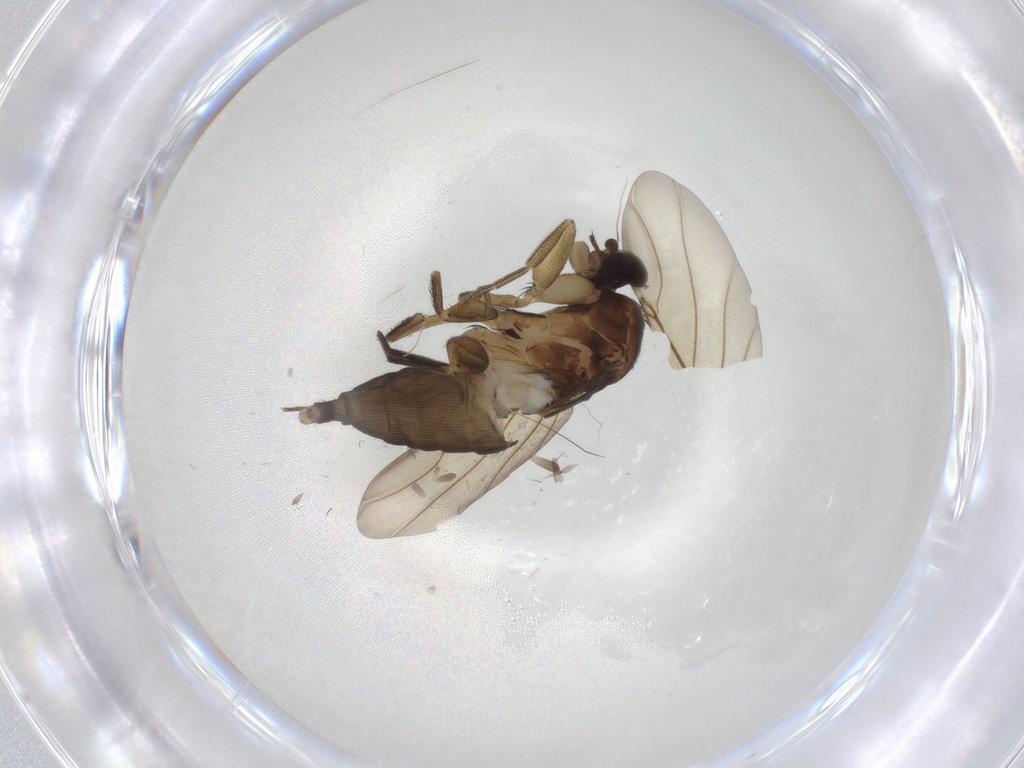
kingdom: Animalia
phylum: Arthropoda
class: Insecta
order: Diptera
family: Phoridae
